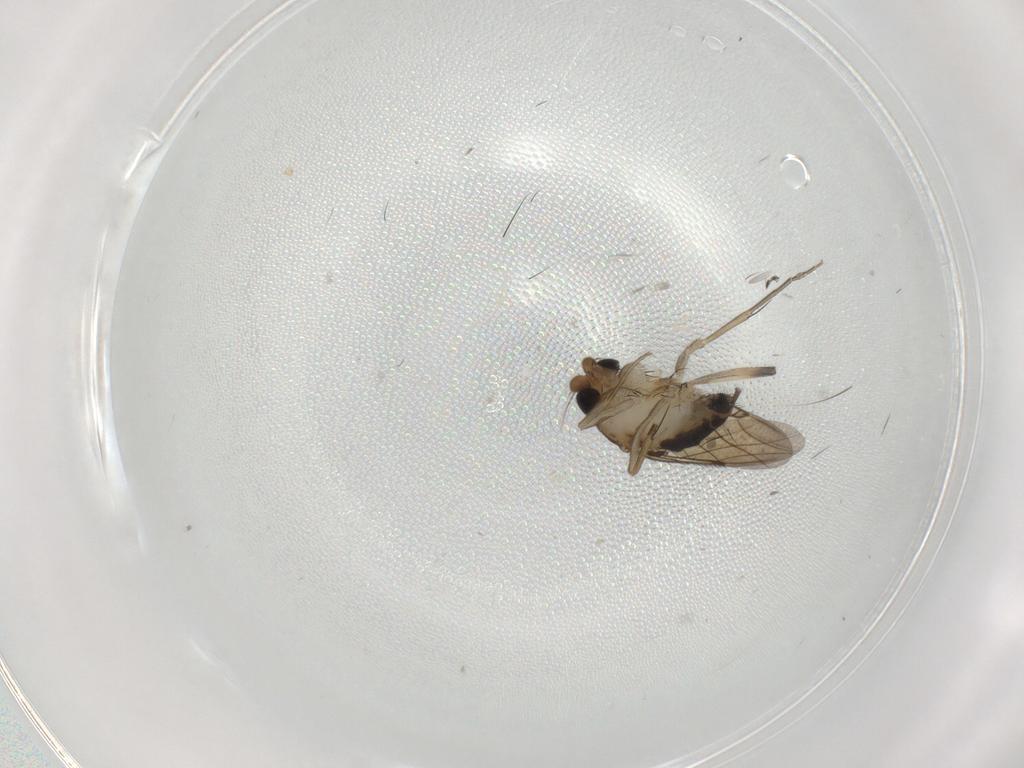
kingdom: Animalia
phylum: Arthropoda
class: Insecta
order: Diptera
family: Phoridae
